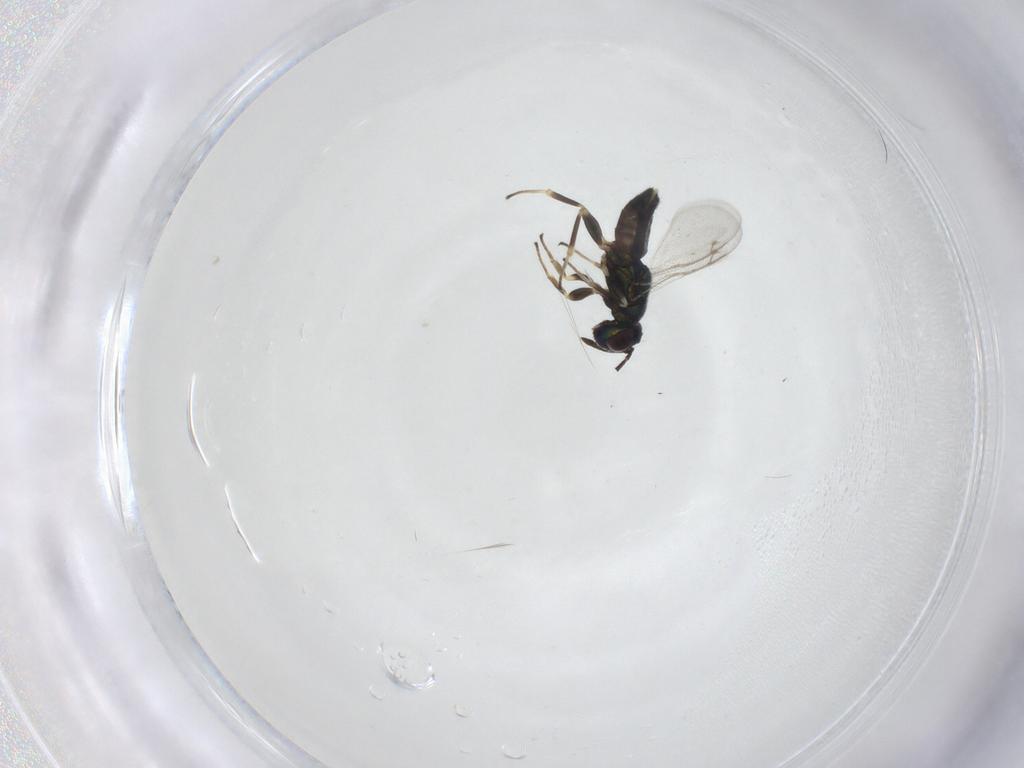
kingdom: Animalia
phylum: Arthropoda
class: Insecta
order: Hymenoptera
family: Eupelmidae
